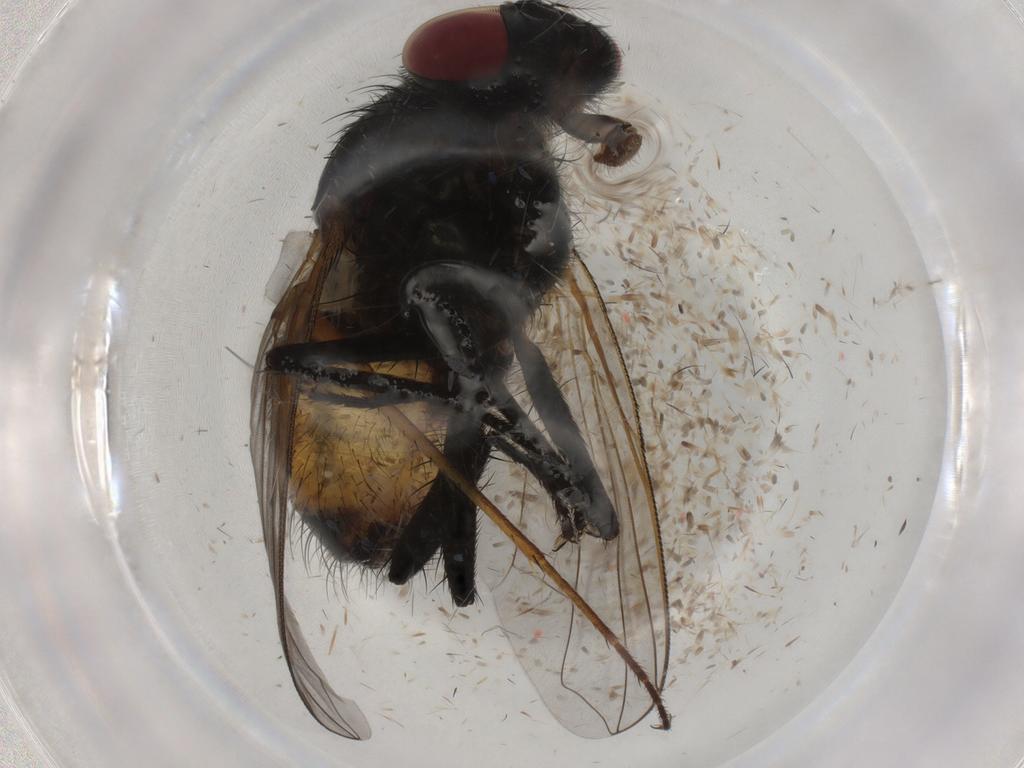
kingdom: Animalia
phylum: Arthropoda
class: Insecta
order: Diptera
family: Bombyliidae
